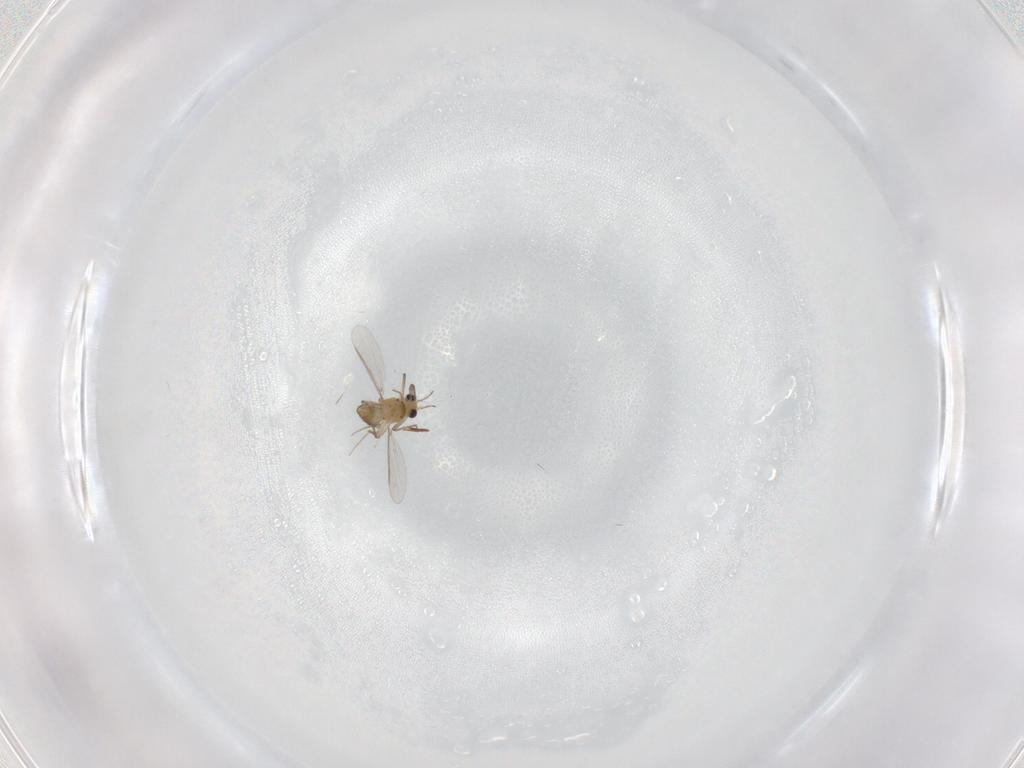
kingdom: Animalia
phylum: Arthropoda
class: Insecta
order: Diptera
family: Chironomidae
